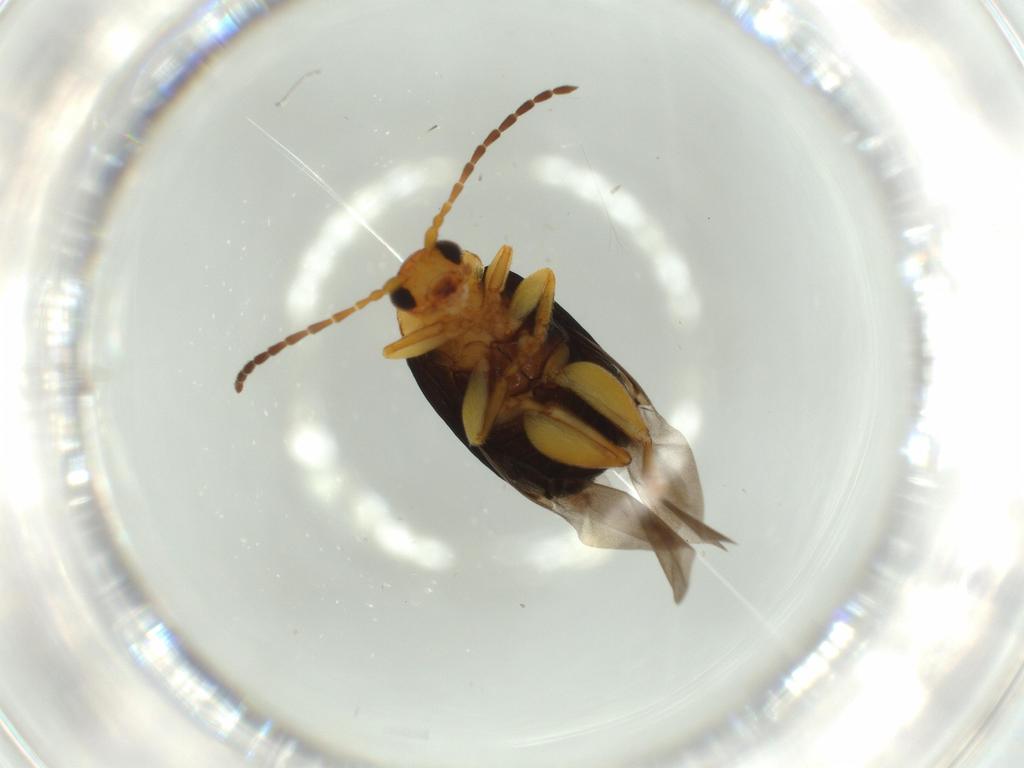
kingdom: Animalia
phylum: Arthropoda
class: Insecta
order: Coleoptera
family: Chrysomelidae
